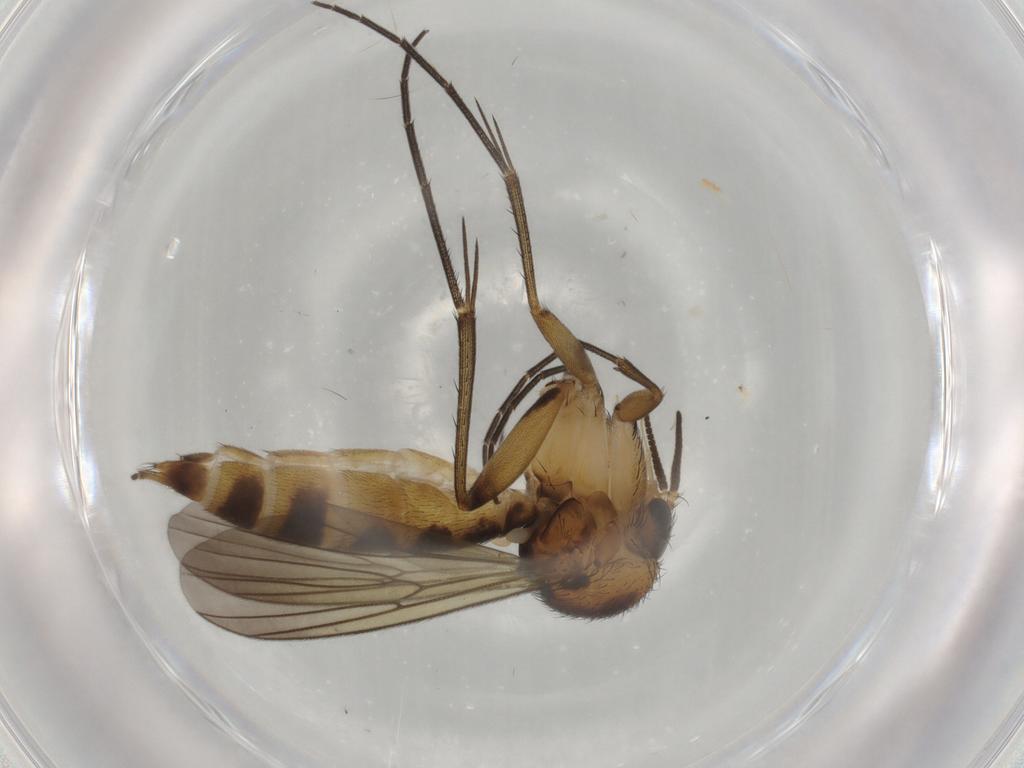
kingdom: Animalia
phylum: Arthropoda
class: Insecta
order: Diptera
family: Mycetophilidae
